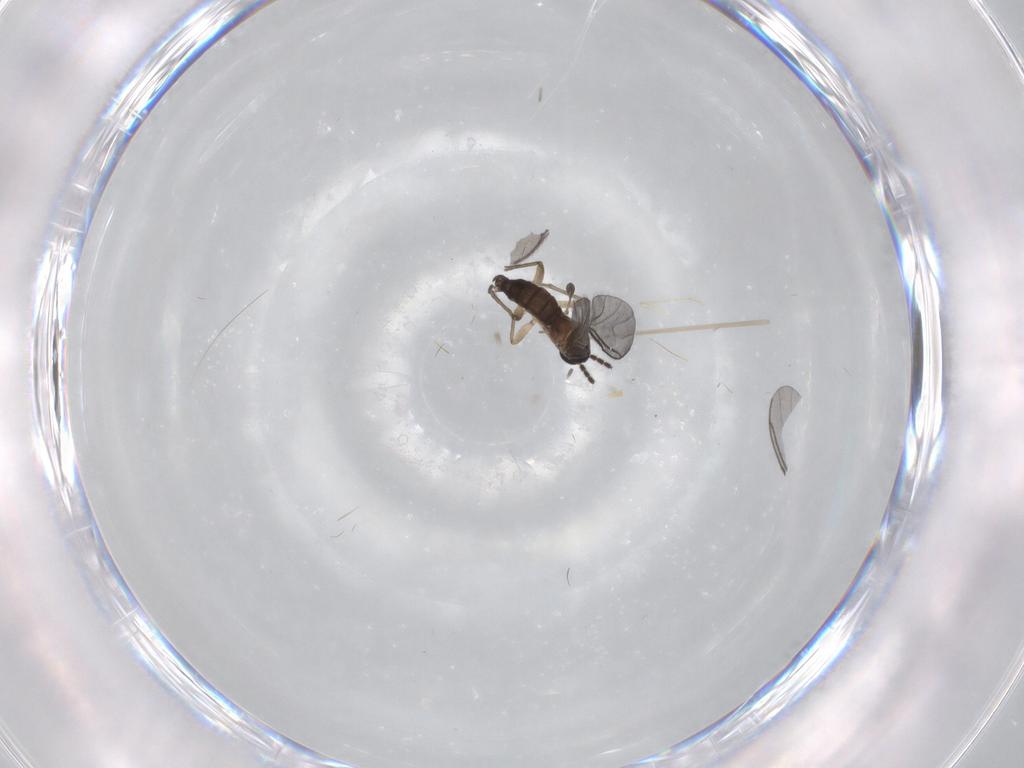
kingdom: Animalia
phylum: Arthropoda
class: Insecta
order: Diptera
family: Sciaridae
